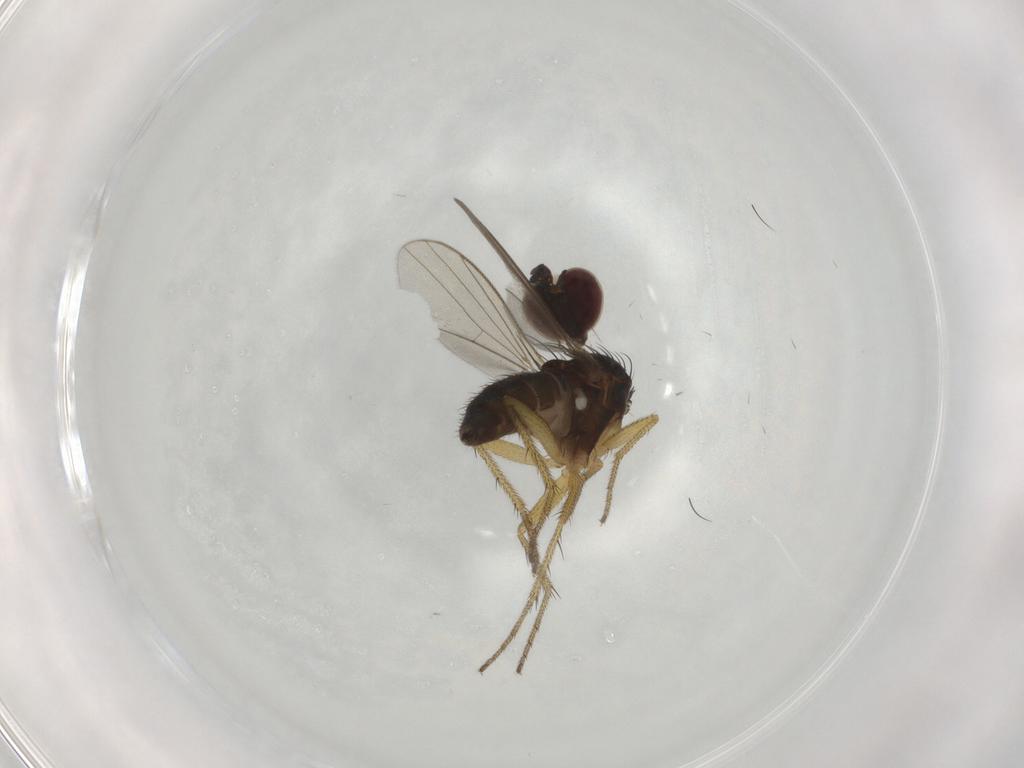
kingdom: Animalia
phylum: Arthropoda
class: Insecta
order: Diptera
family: Dolichopodidae
